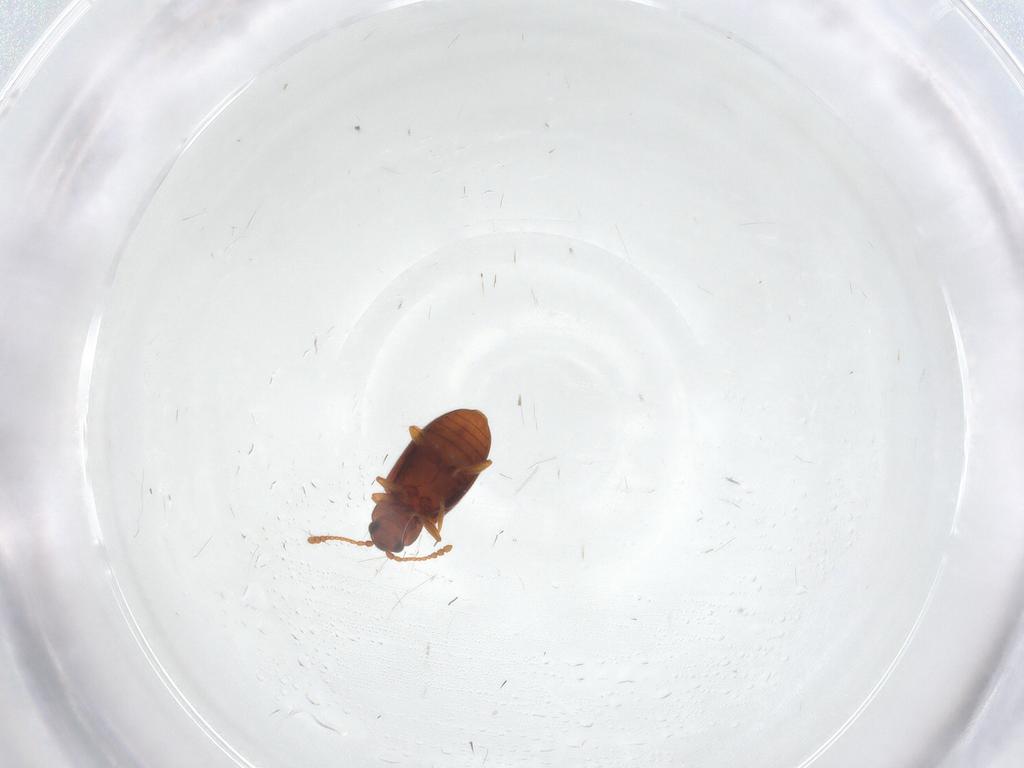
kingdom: Animalia
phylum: Arthropoda
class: Insecta
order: Coleoptera
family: Cryptophagidae
